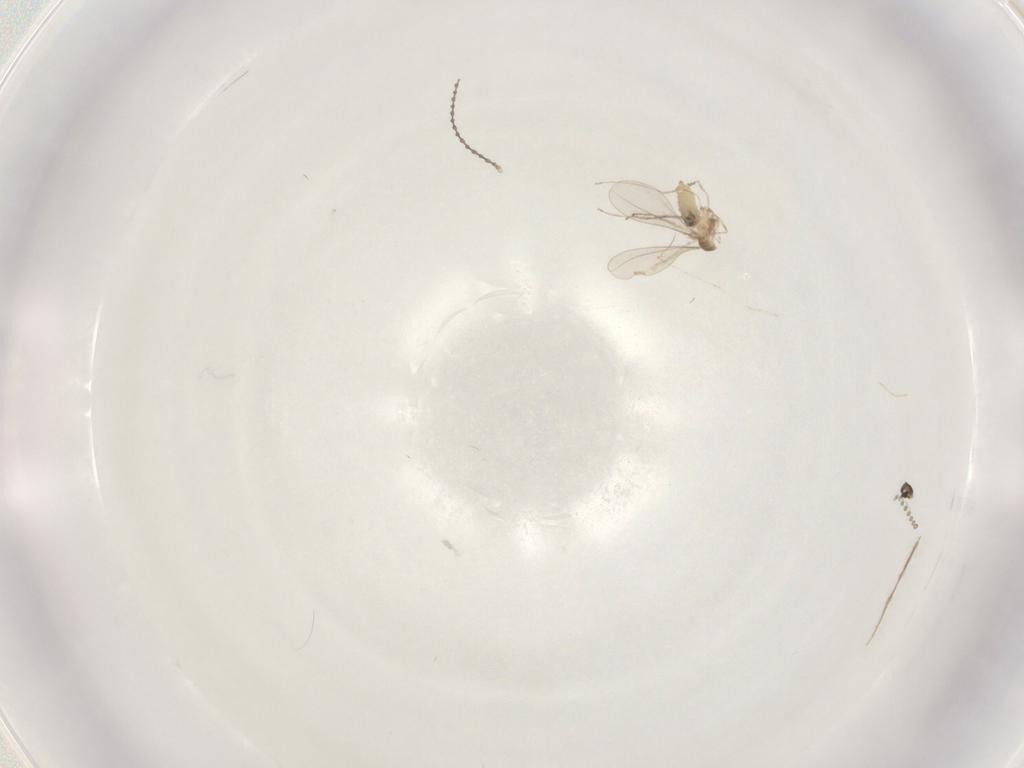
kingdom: Animalia
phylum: Arthropoda
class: Insecta
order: Diptera
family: Cecidomyiidae
